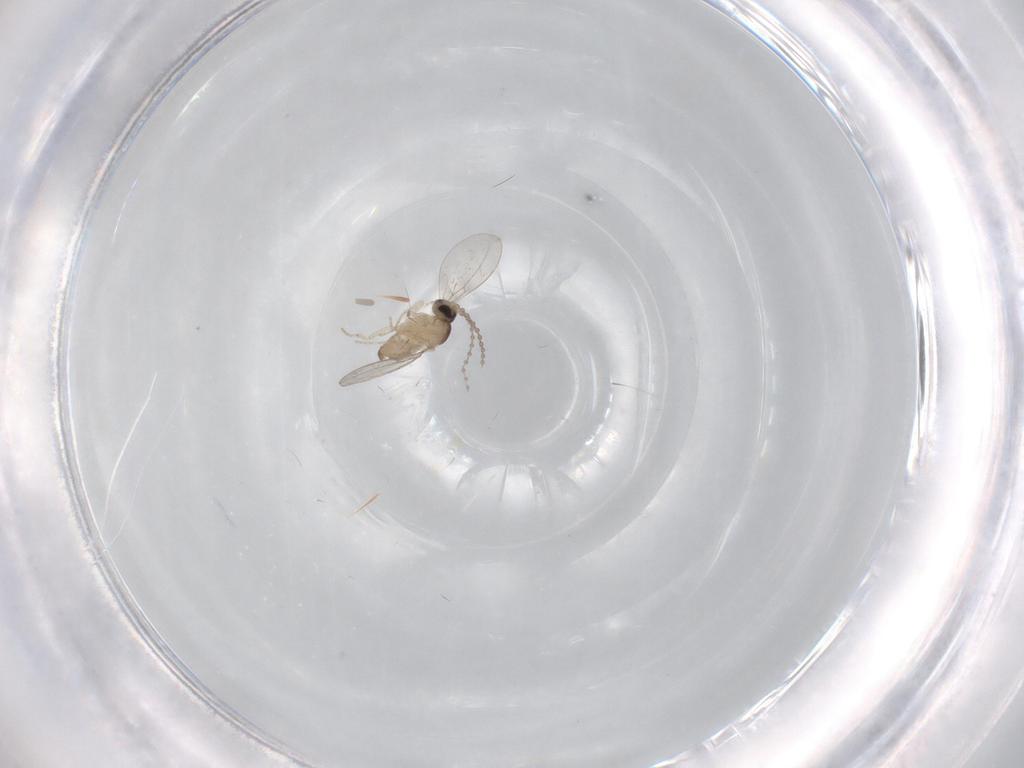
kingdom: Animalia
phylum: Arthropoda
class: Insecta
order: Diptera
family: Cecidomyiidae
